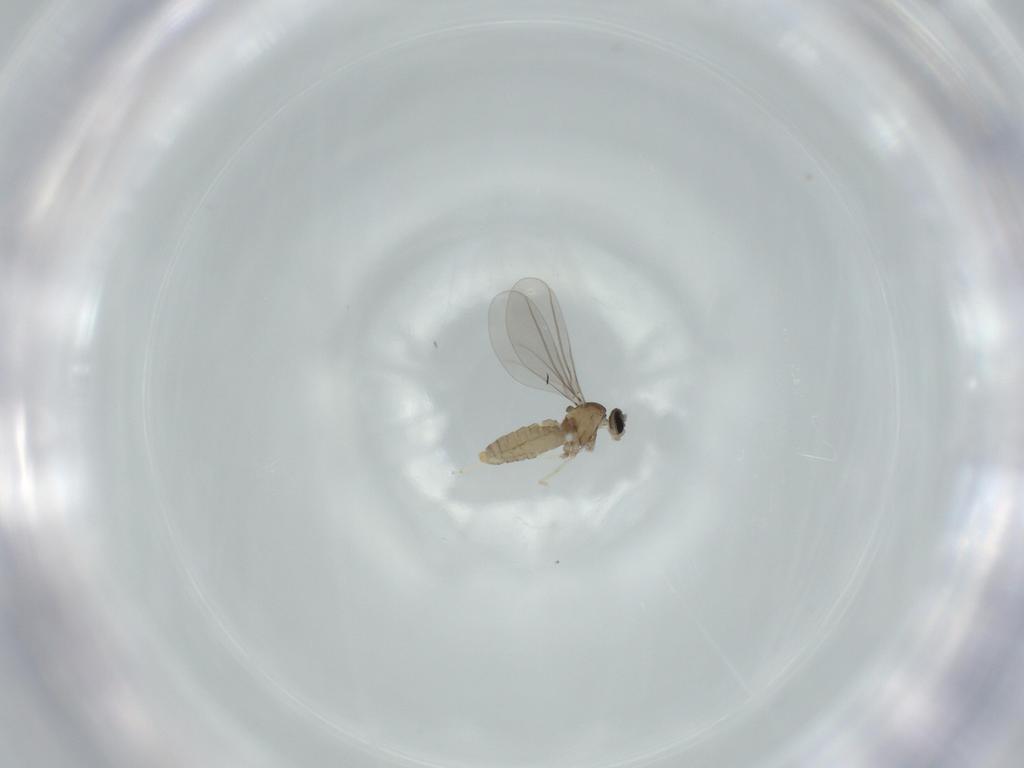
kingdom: Animalia
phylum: Arthropoda
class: Insecta
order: Diptera
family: Cecidomyiidae
